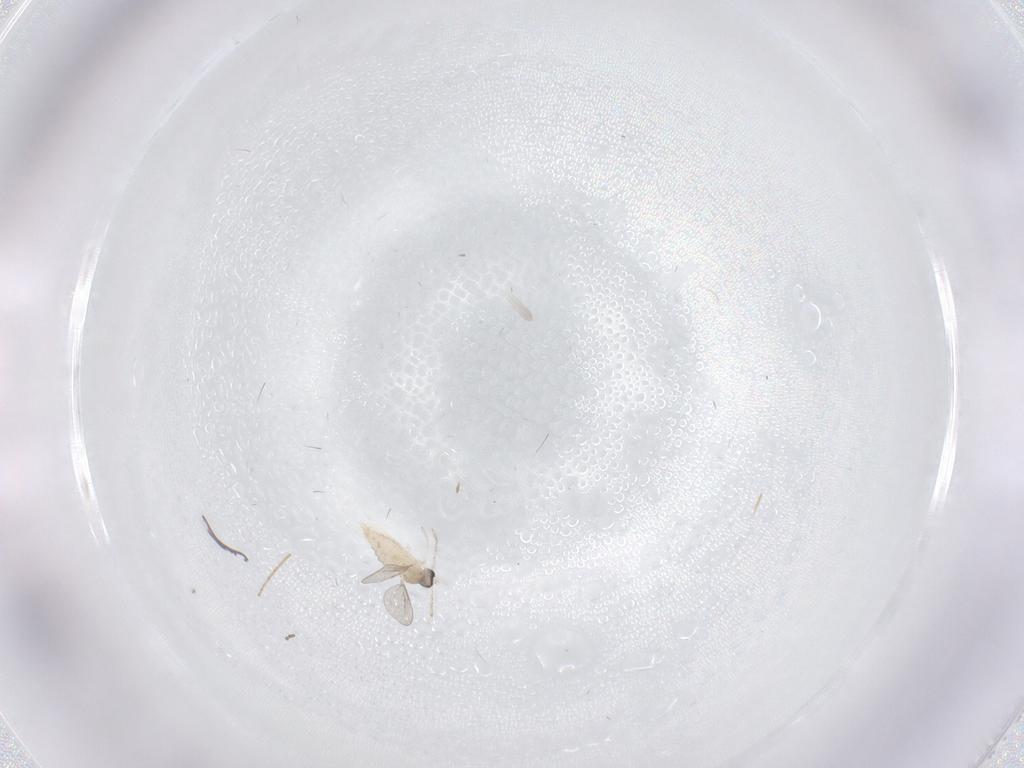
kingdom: Animalia
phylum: Arthropoda
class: Insecta
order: Diptera
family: Cecidomyiidae
